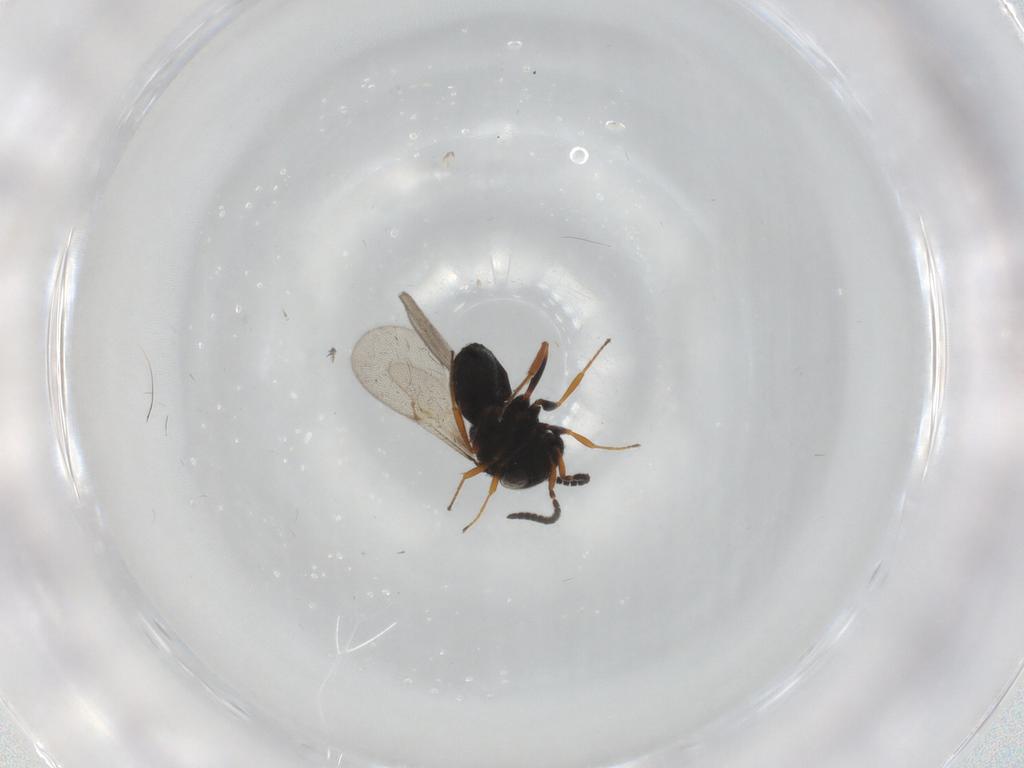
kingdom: Animalia
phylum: Arthropoda
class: Insecta
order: Hymenoptera
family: Scelionidae
